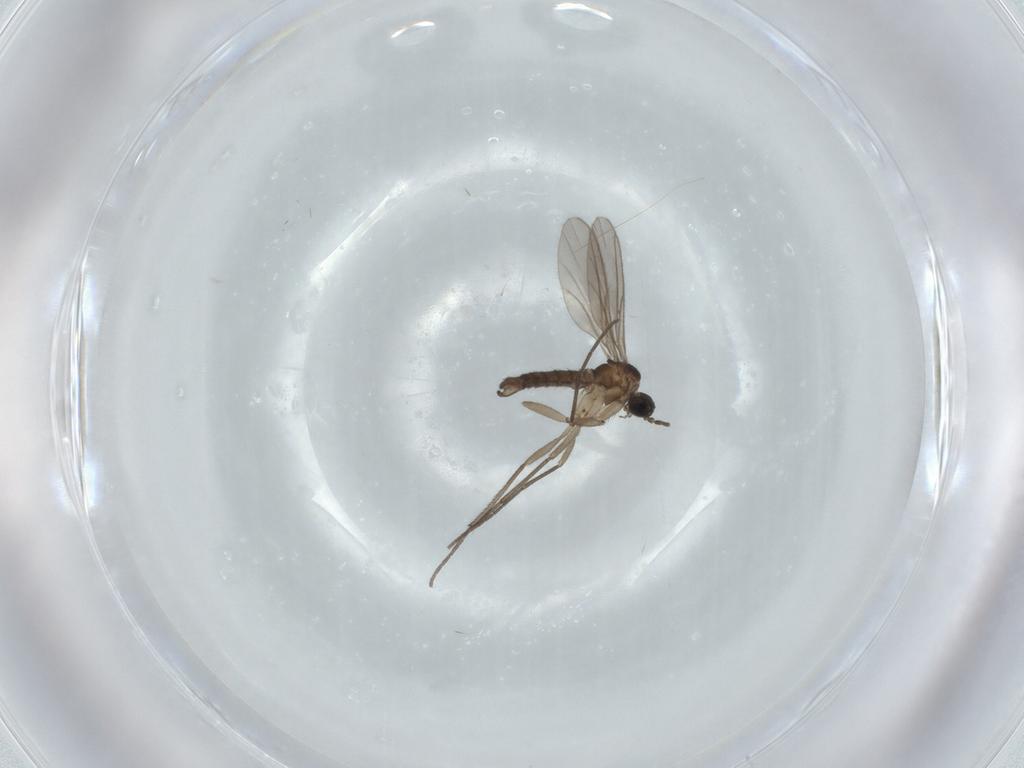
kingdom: Animalia
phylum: Arthropoda
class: Insecta
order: Diptera
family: Sciaridae
